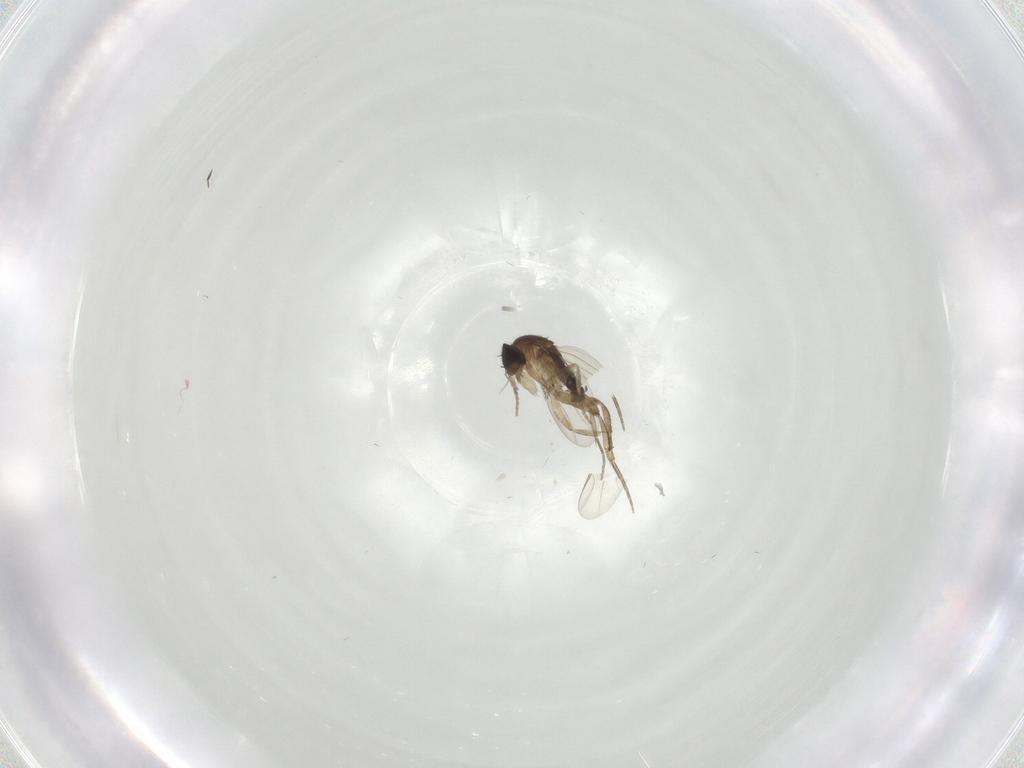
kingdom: Animalia
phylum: Arthropoda
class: Insecta
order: Diptera
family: Phoridae
